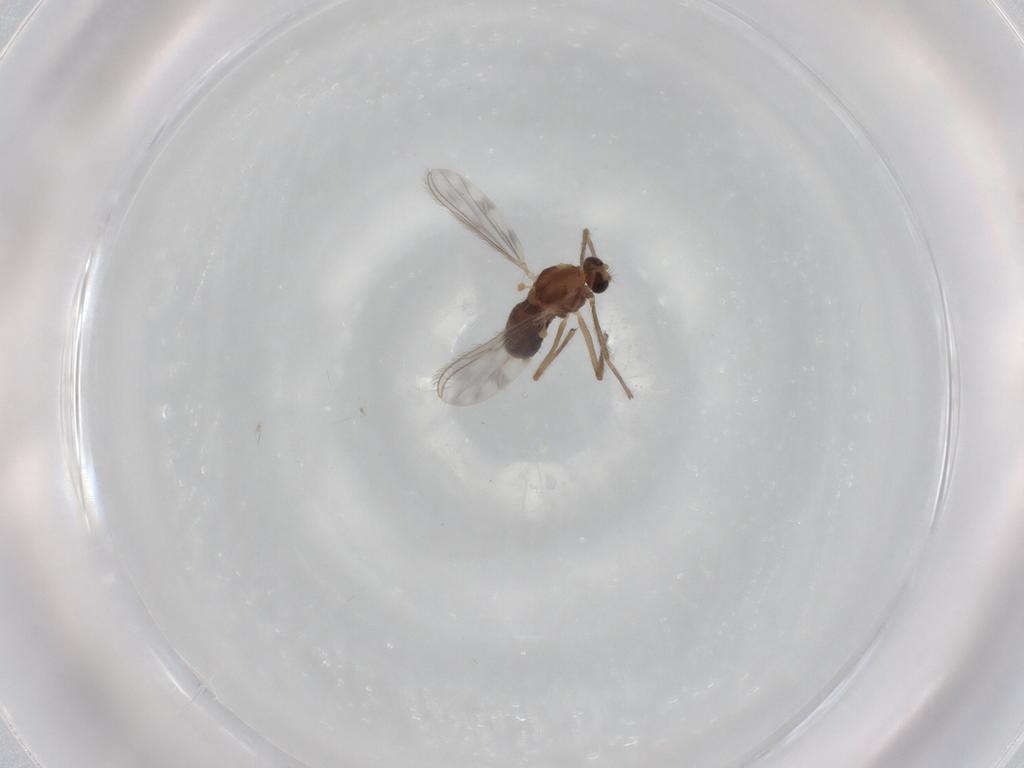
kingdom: Animalia
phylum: Arthropoda
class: Insecta
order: Diptera
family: Chironomidae
